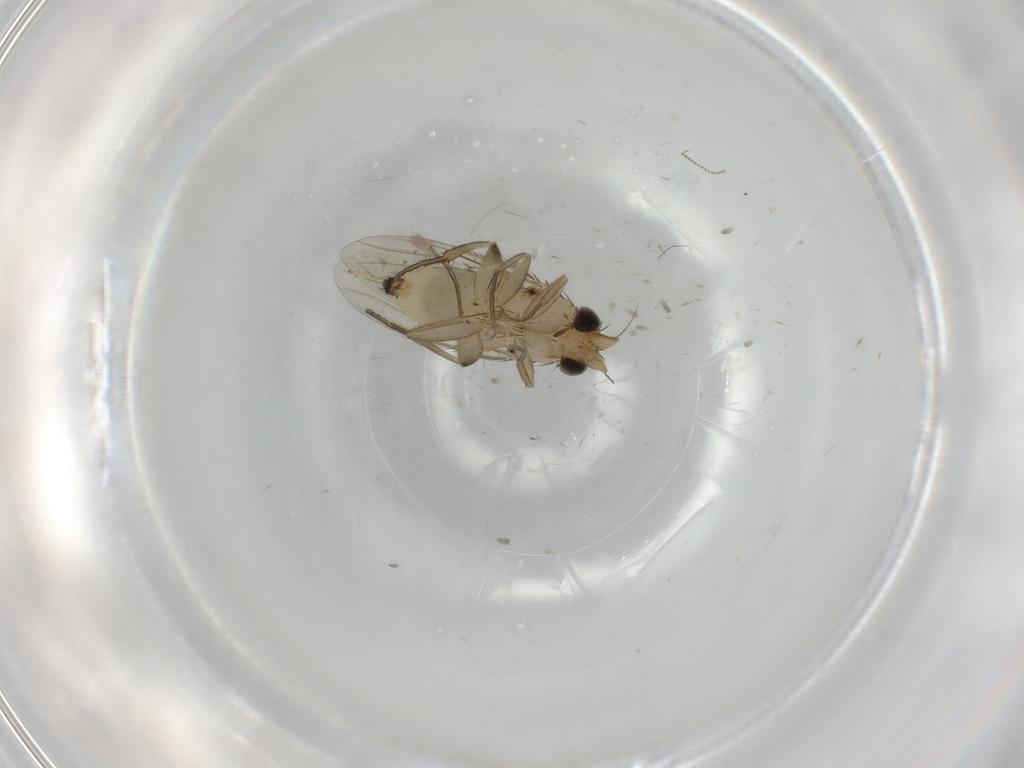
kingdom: Animalia
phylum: Arthropoda
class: Insecta
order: Diptera
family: Phoridae
